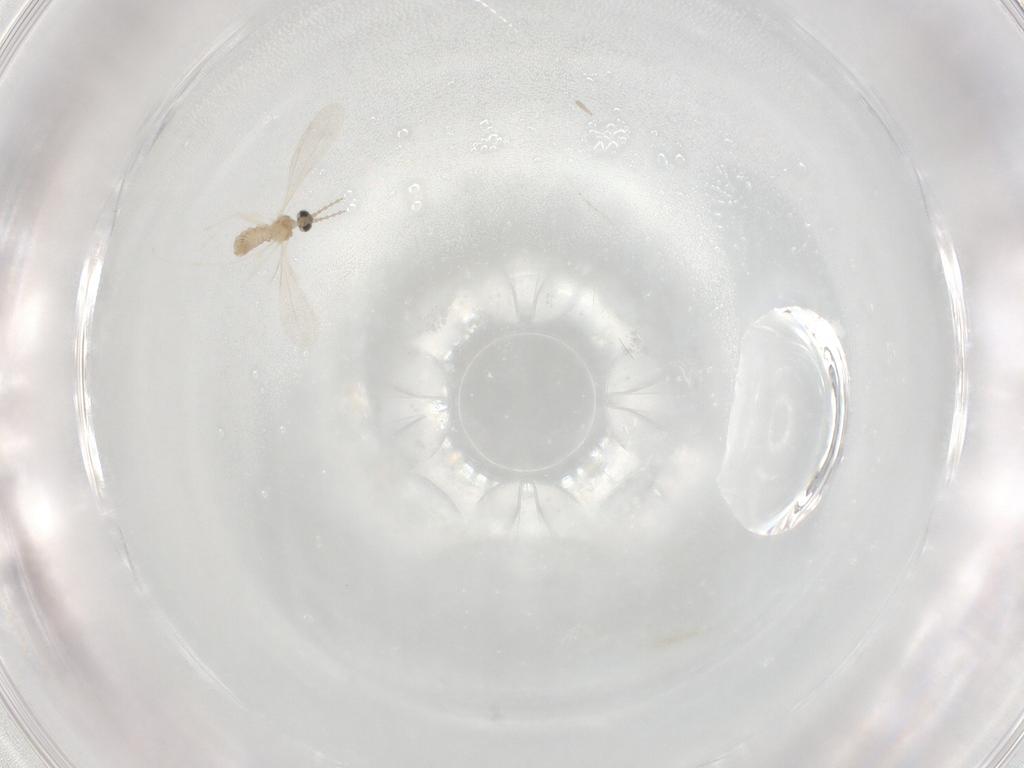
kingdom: Animalia
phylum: Arthropoda
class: Insecta
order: Diptera
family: Cecidomyiidae
